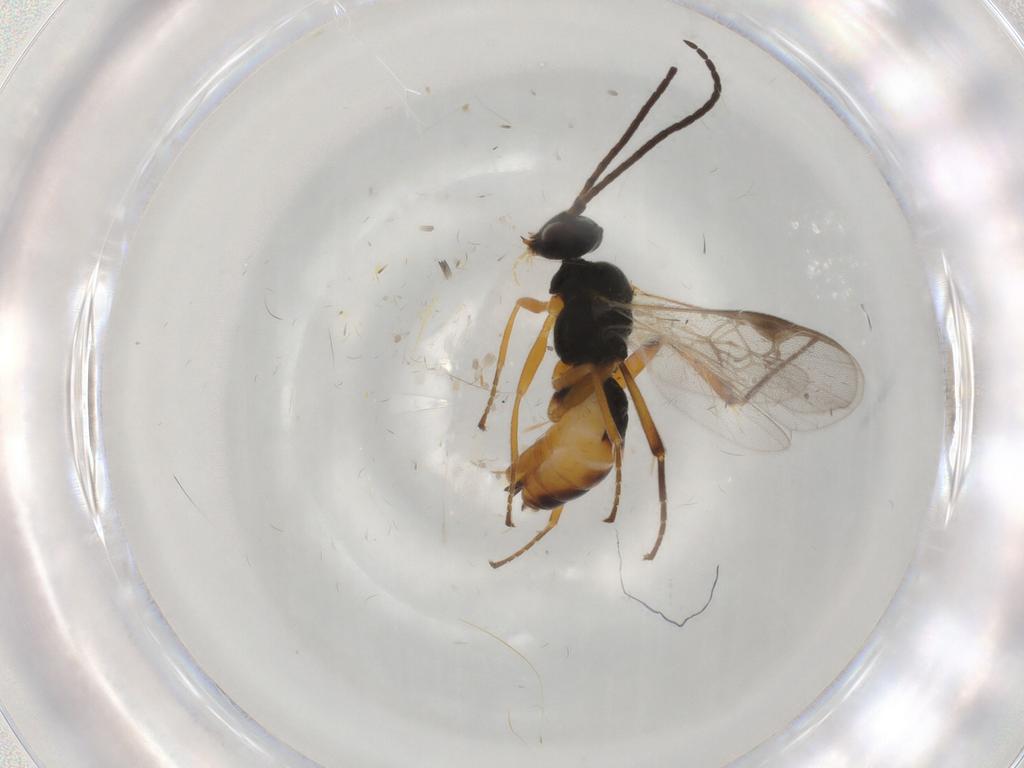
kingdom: Animalia
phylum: Arthropoda
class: Insecta
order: Hymenoptera
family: Braconidae
